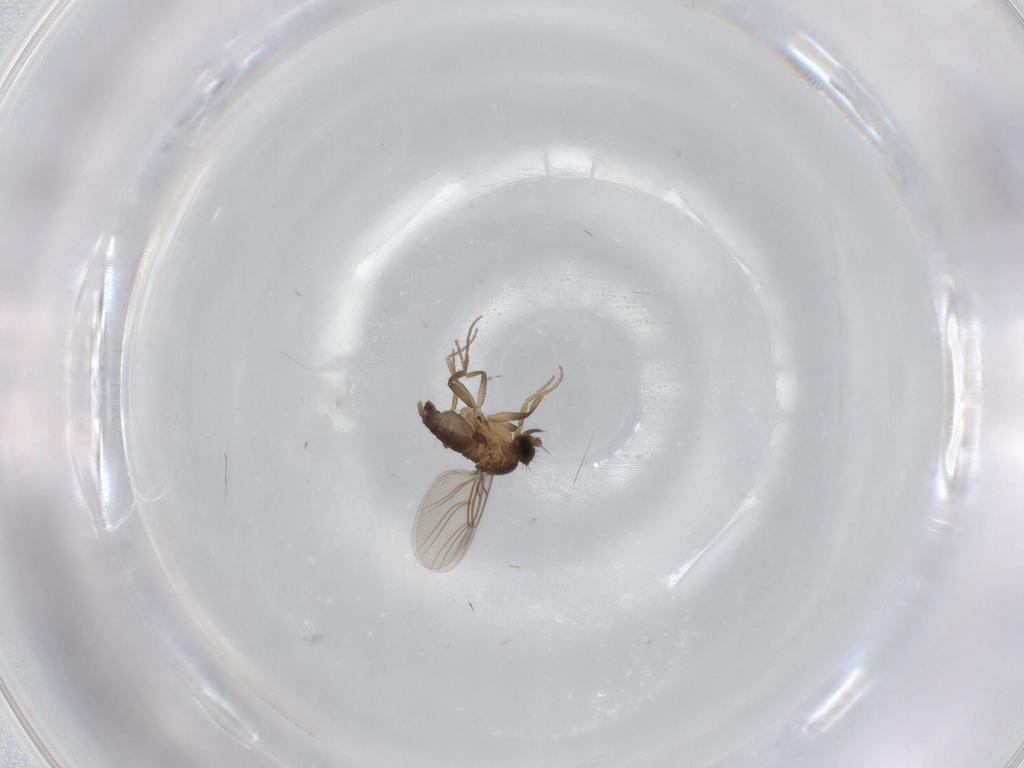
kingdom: Animalia
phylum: Arthropoda
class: Insecta
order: Diptera
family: Phoridae
